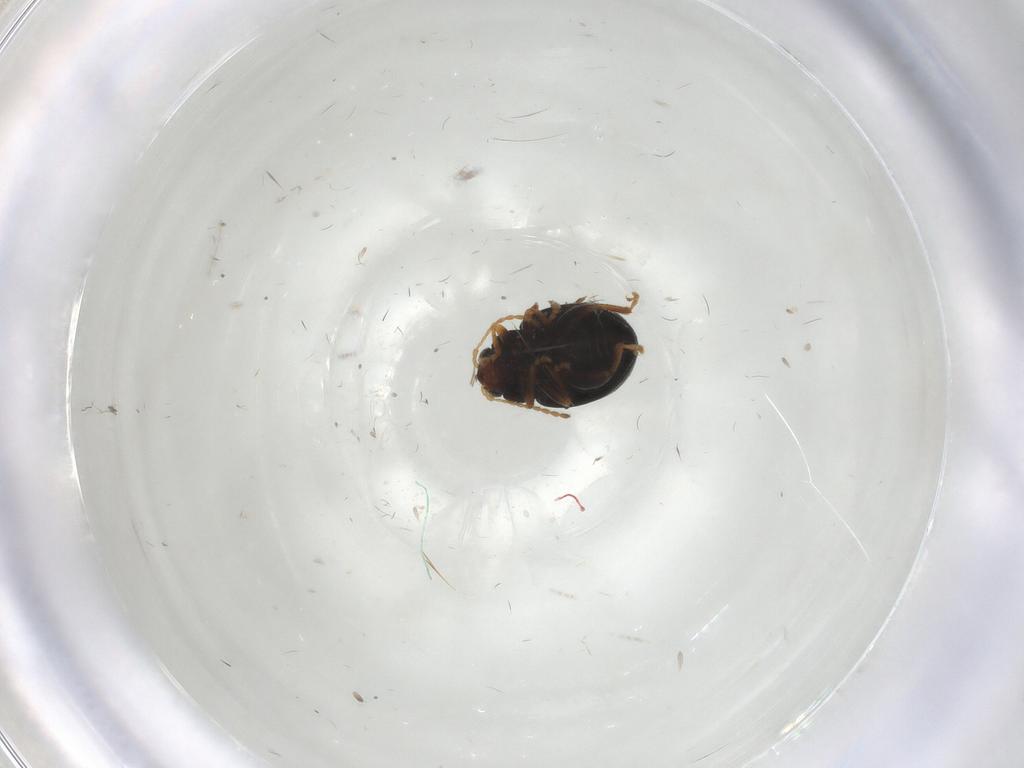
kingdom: Animalia
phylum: Arthropoda
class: Insecta
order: Coleoptera
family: Chrysomelidae
